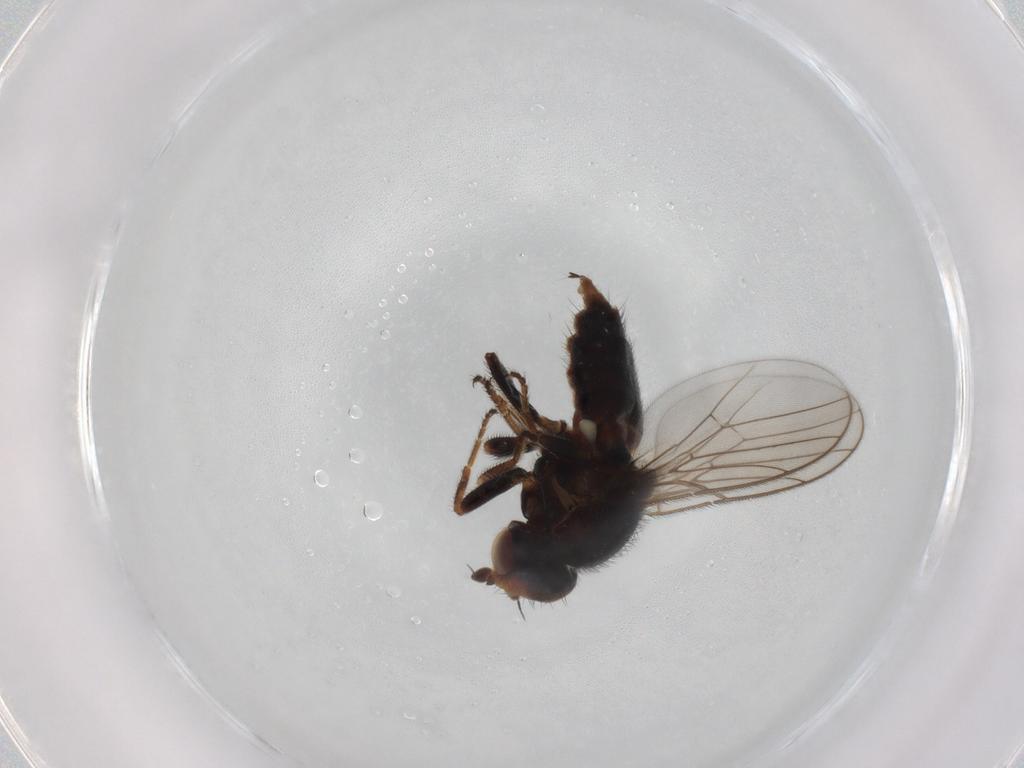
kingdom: Animalia
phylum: Arthropoda
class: Insecta
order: Diptera
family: Chloropidae
